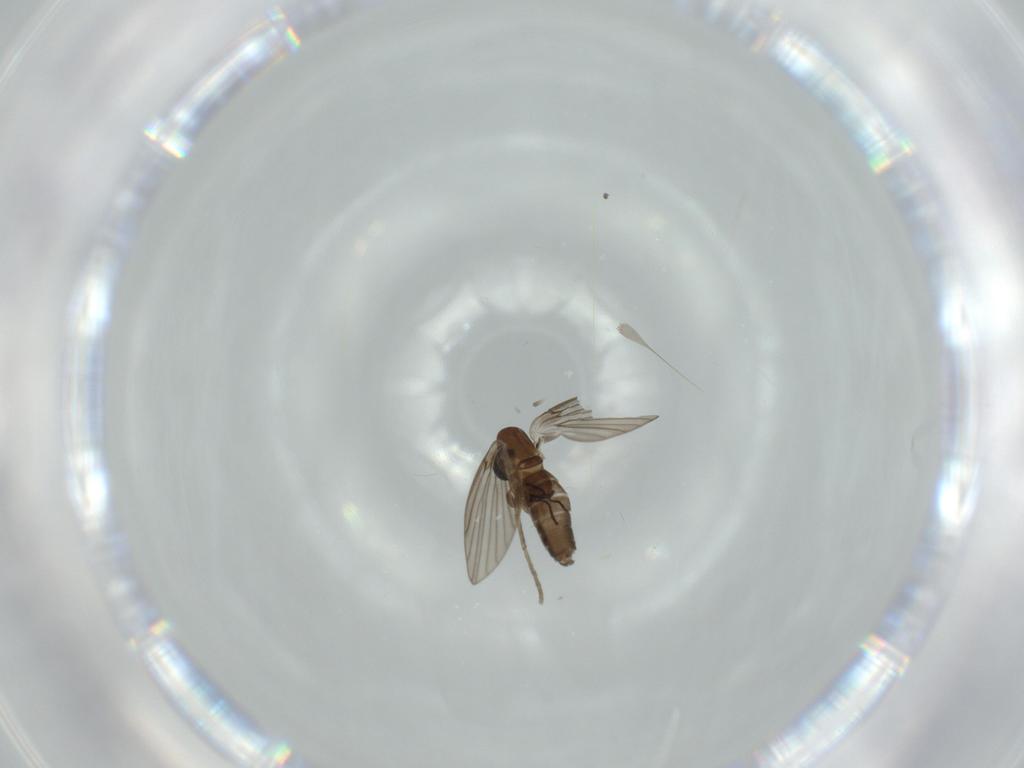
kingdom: Animalia
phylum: Arthropoda
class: Insecta
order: Diptera
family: Psychodidae
